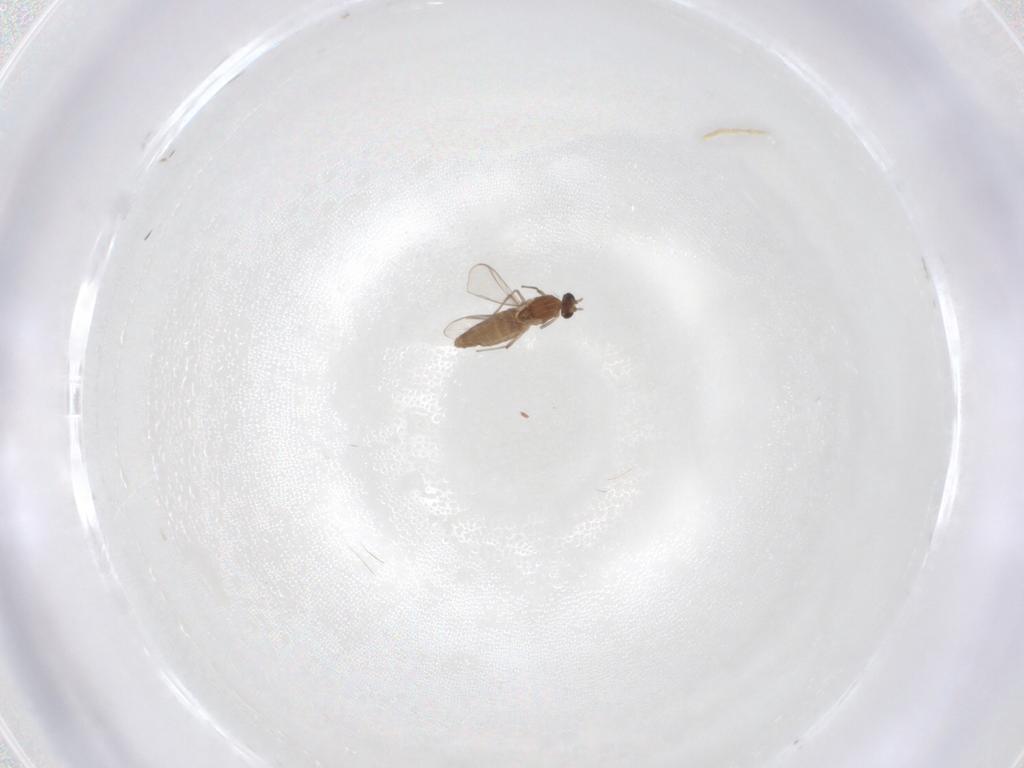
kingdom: Animalia
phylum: Arthropoda
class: Insecta
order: Diptera
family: Chironomidae
